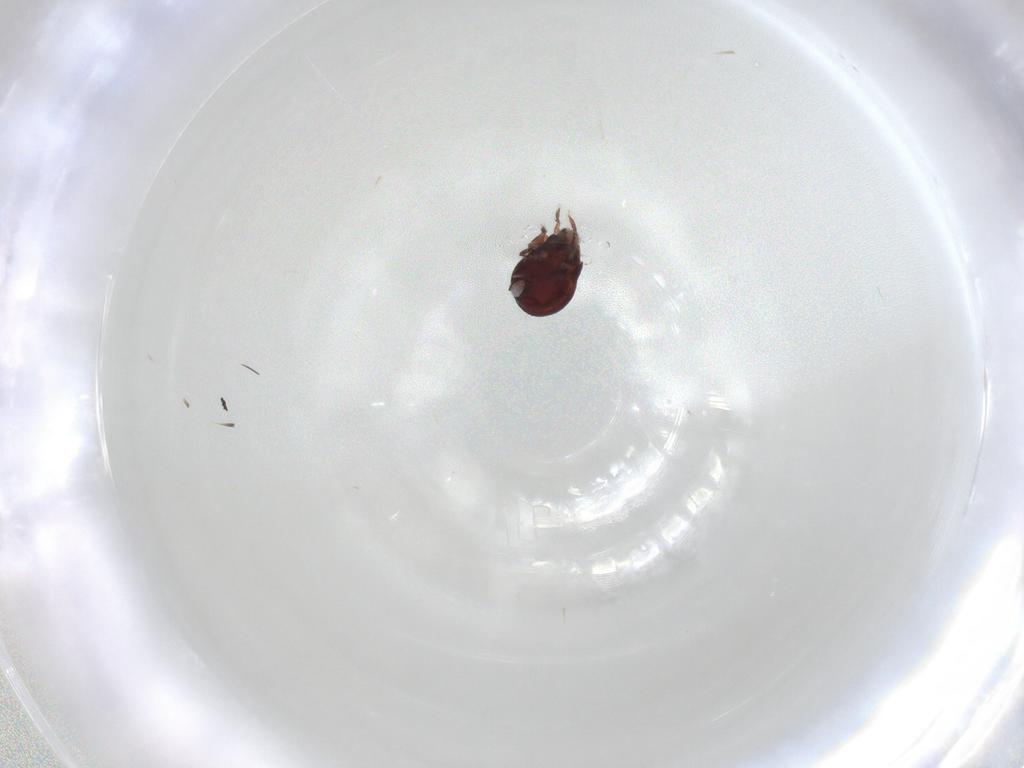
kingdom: Animalia
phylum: Arthropoda
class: Arachnida
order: Sarcoptiformes
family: Humerobatidae
